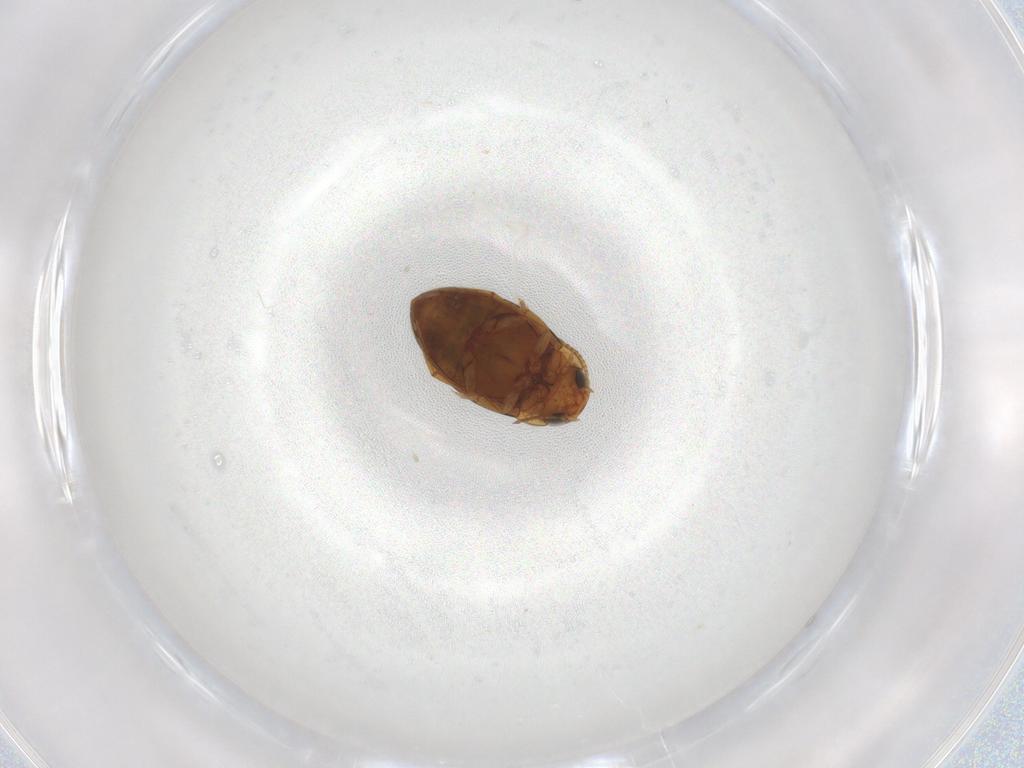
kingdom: Animalia
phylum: Arthropoda
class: Insecta
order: Coleoptera
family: Dytiscidae
